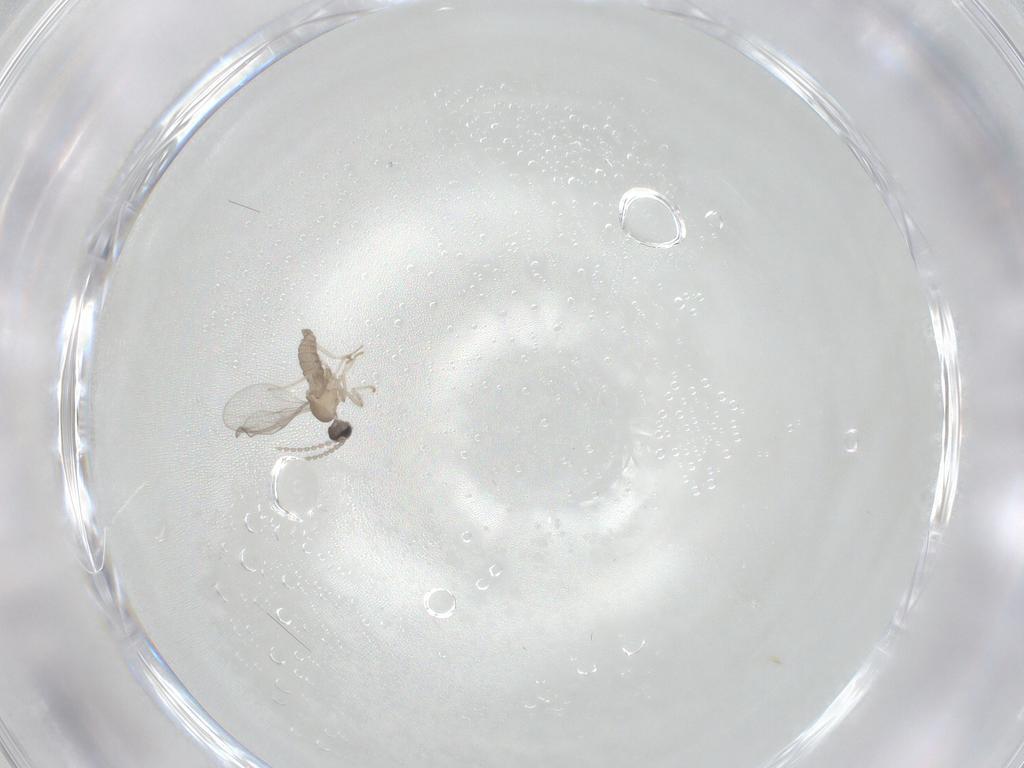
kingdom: Animalia
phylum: Arthropoda
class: Insecta
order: Diptera
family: Cecidomyiidae
